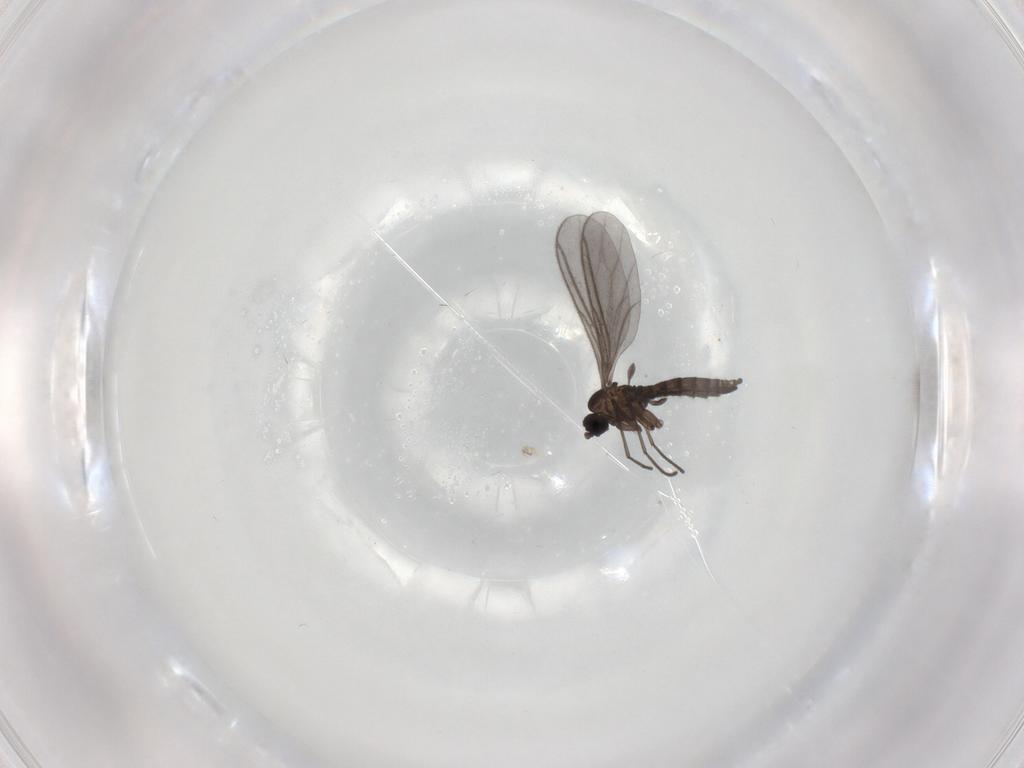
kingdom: Animalia
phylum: Arthropoda
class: Insecta
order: Diptera
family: Sciaridae
